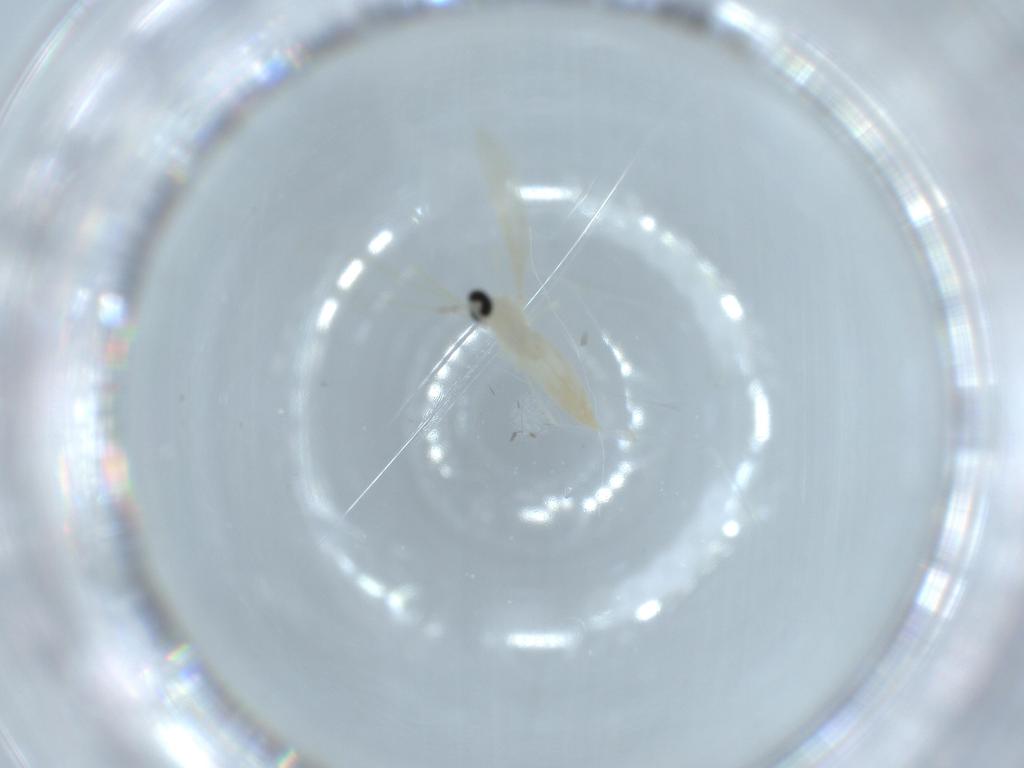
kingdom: Animalia
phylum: Arthropoda
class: Insecta
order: Diptera
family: Cecidomyiidae
